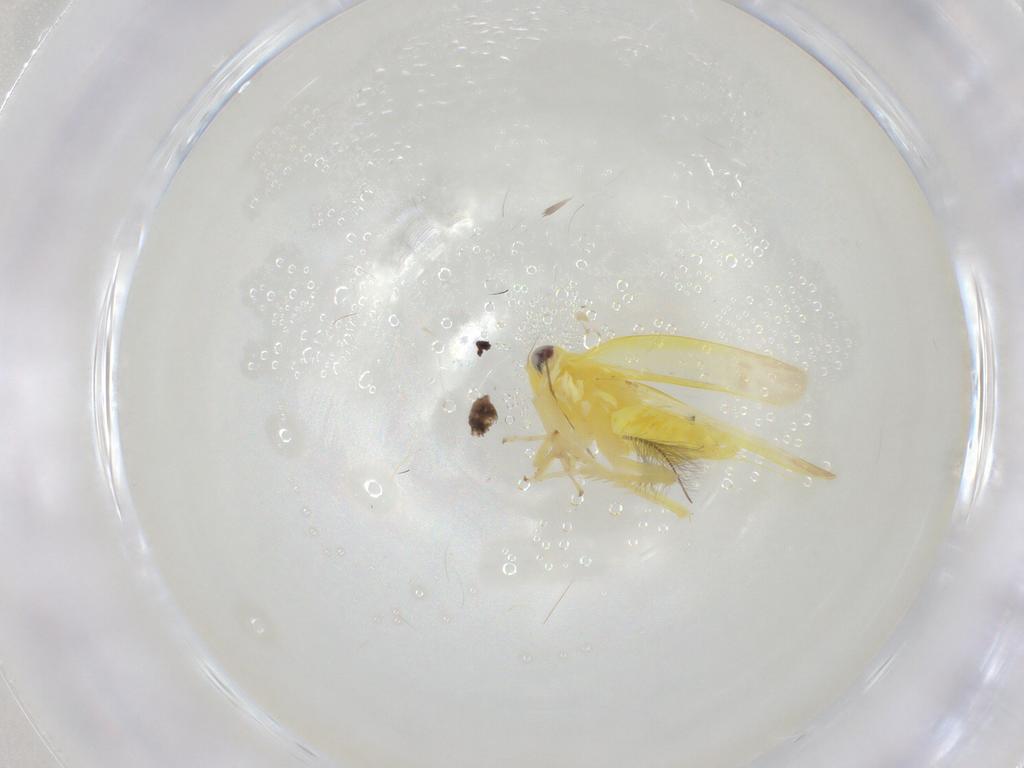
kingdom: Animalia
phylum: Arthropoda
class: Insecta
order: Hemiptera
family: Cicadellidae
